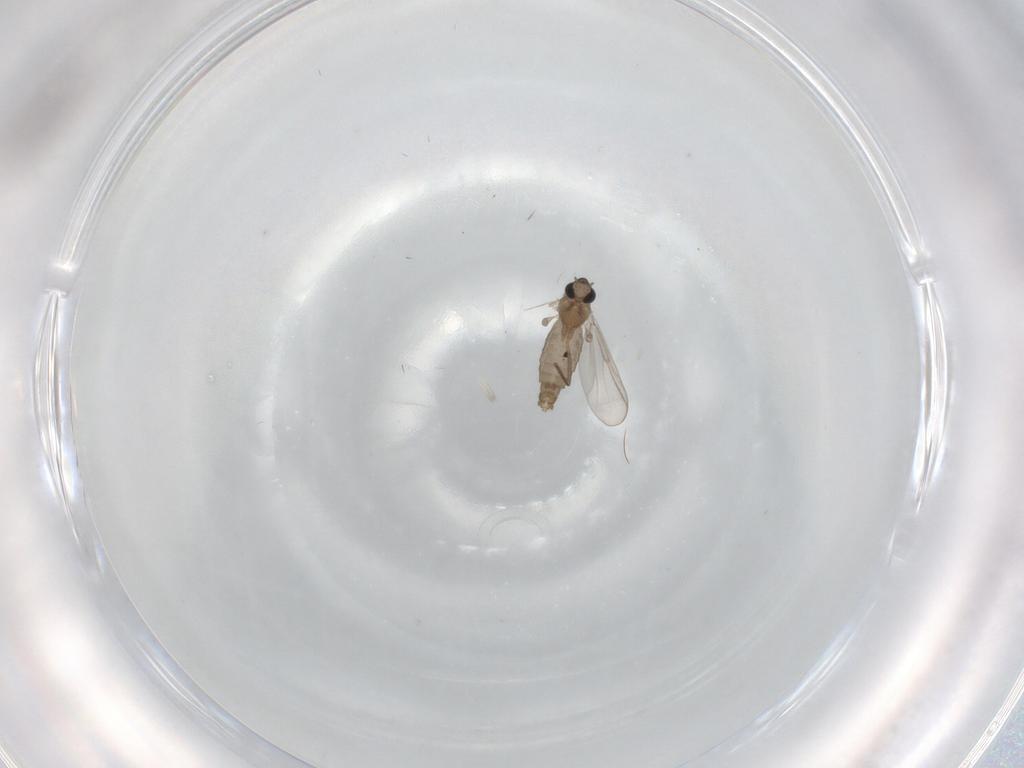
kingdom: Animalia
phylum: Arthropoda
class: Insecta
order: Diptera
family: Chironomidae
